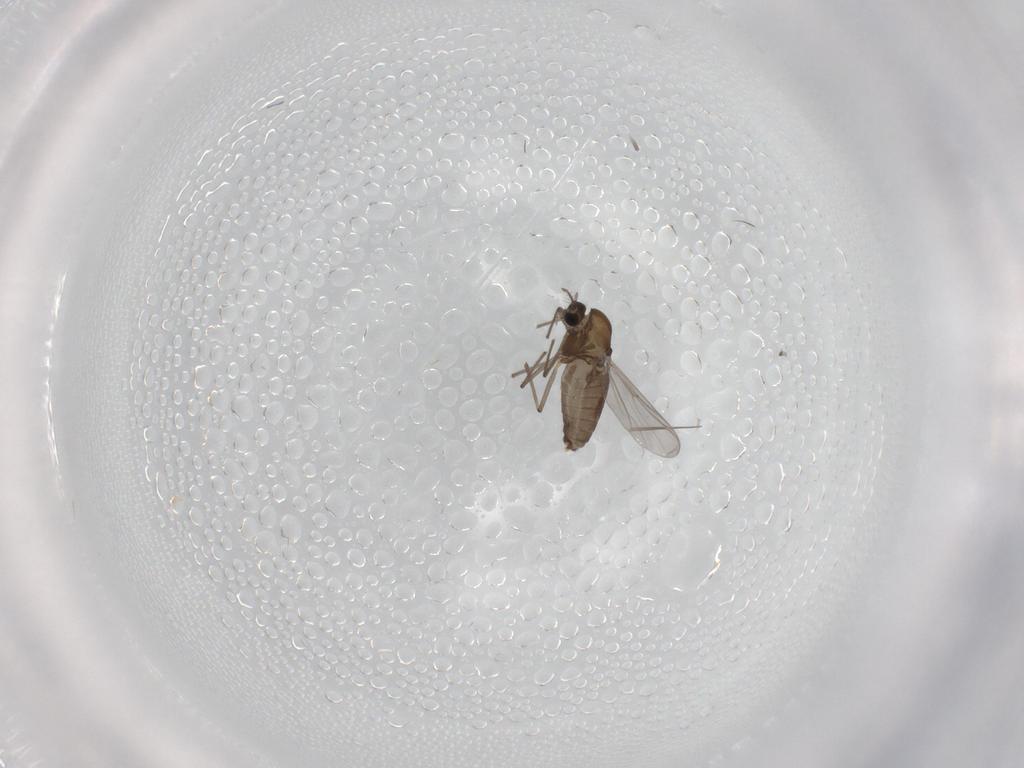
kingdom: Animalia
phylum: Arthropoda
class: Insecta
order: Diptera
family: Chironomidae
